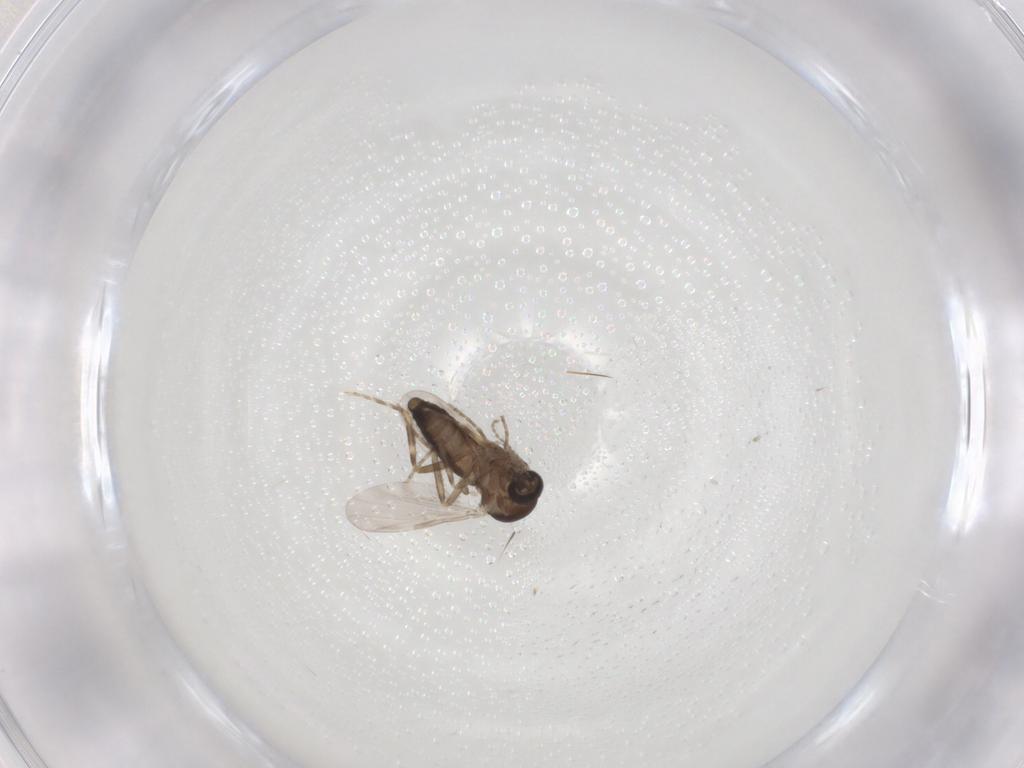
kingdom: Animalia
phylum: Arthropoda
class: Insecta
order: Diptera
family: Ceratopogonidae
